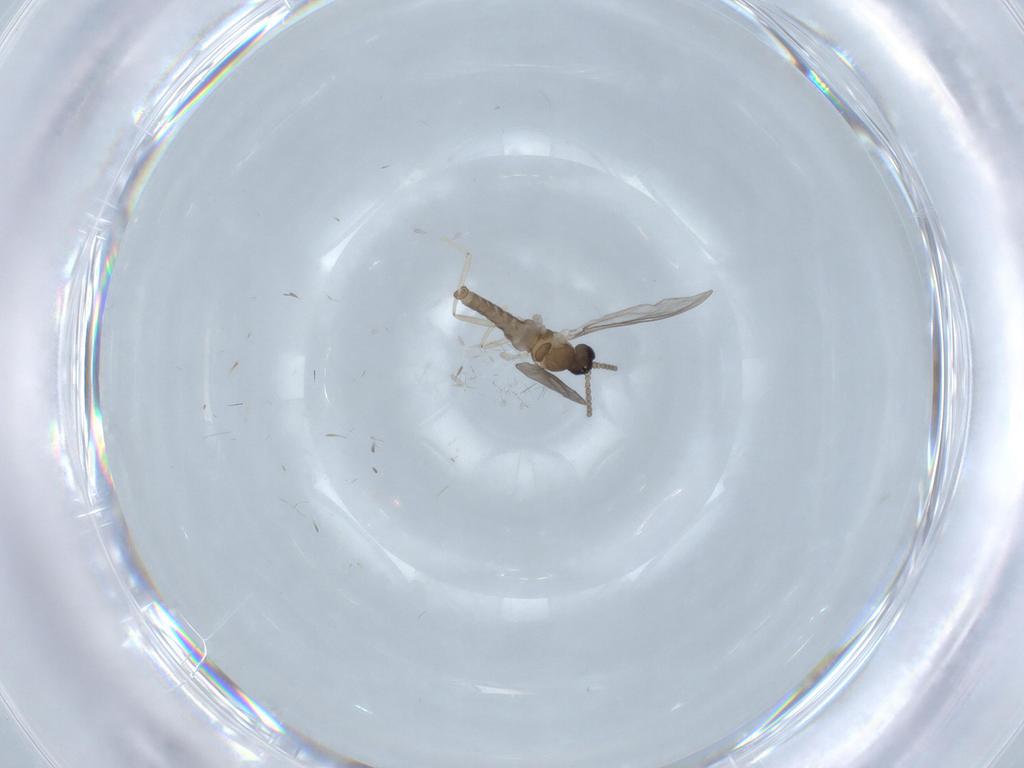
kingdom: Animalia
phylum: Arthropoda
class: Insecta
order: Diptera
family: Cecidomyiidae
